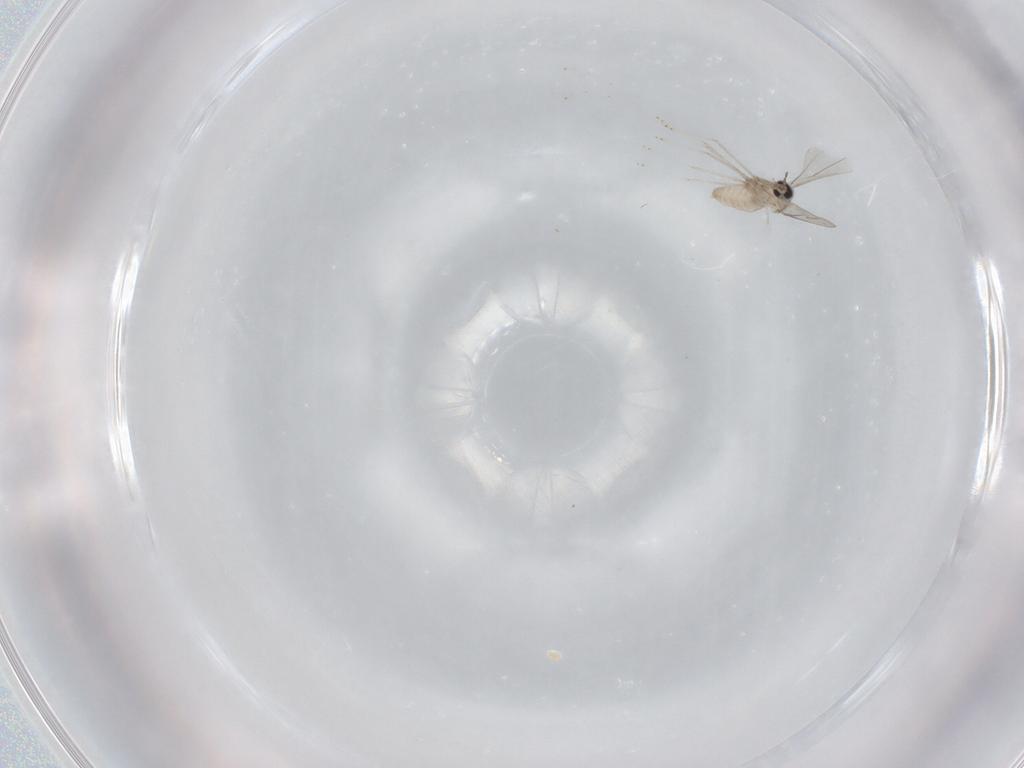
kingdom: Animalia
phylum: Arthropoda
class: Insecta
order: Diptera
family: Cecidomyiidae
